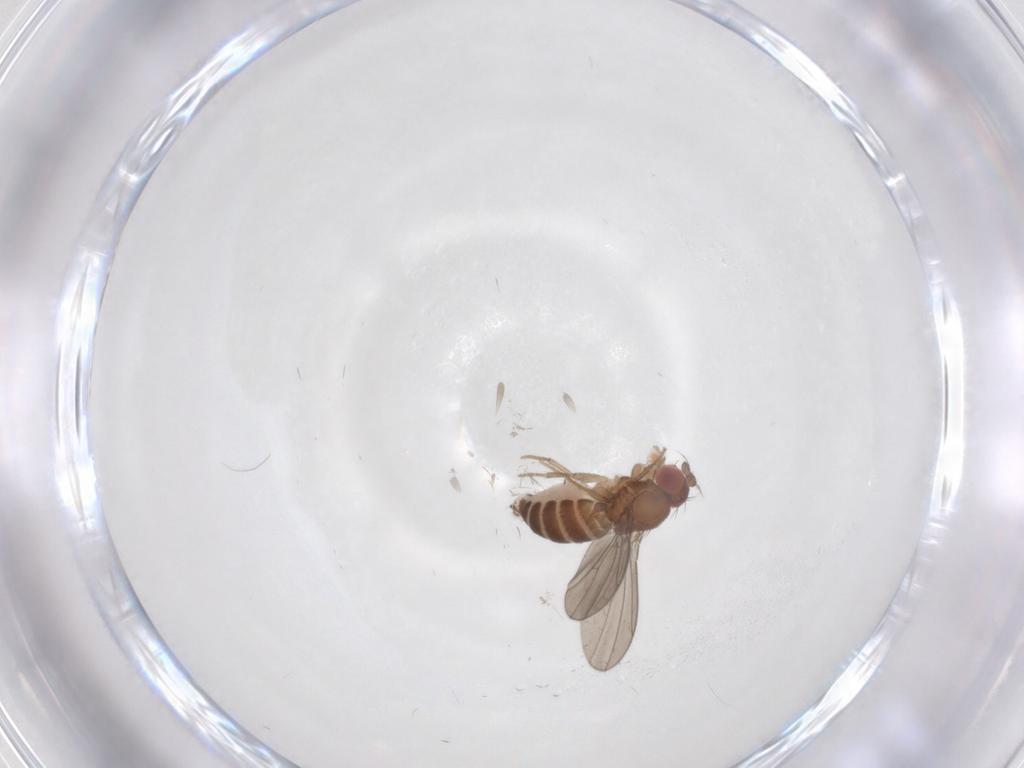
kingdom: Animalia
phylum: Arthropoda
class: Insecta
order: Diptera
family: Drosophilidae
